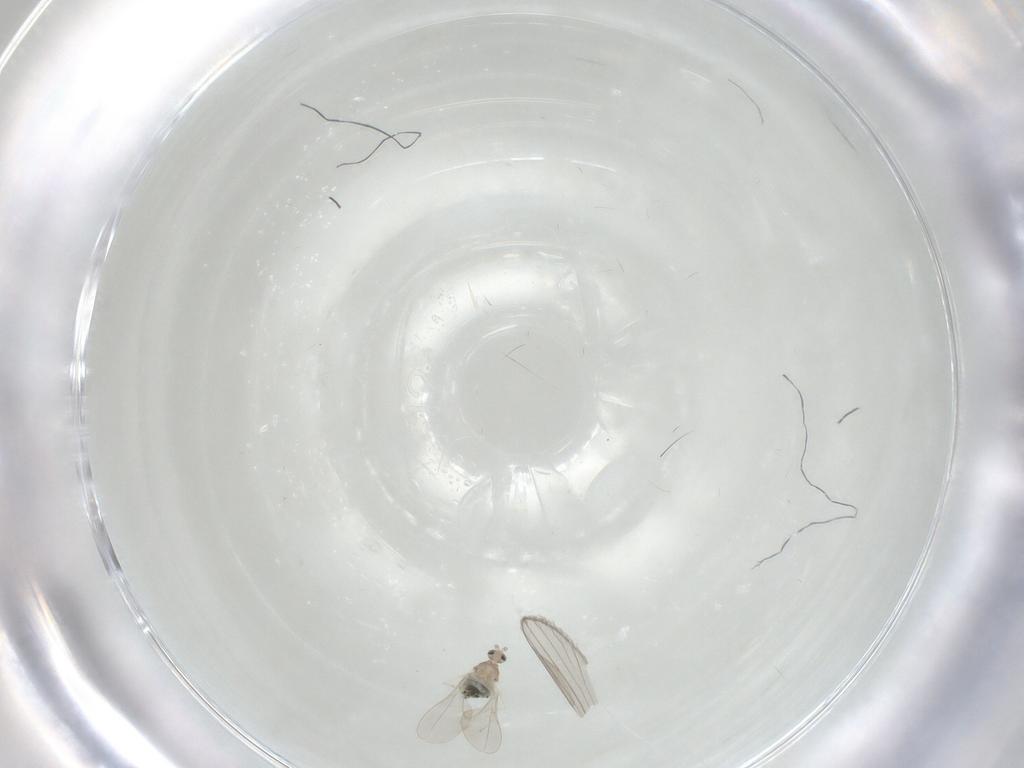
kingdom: Animalia
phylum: Arthropoda
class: Insecta
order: Diptera
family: Cecidomyiidae
